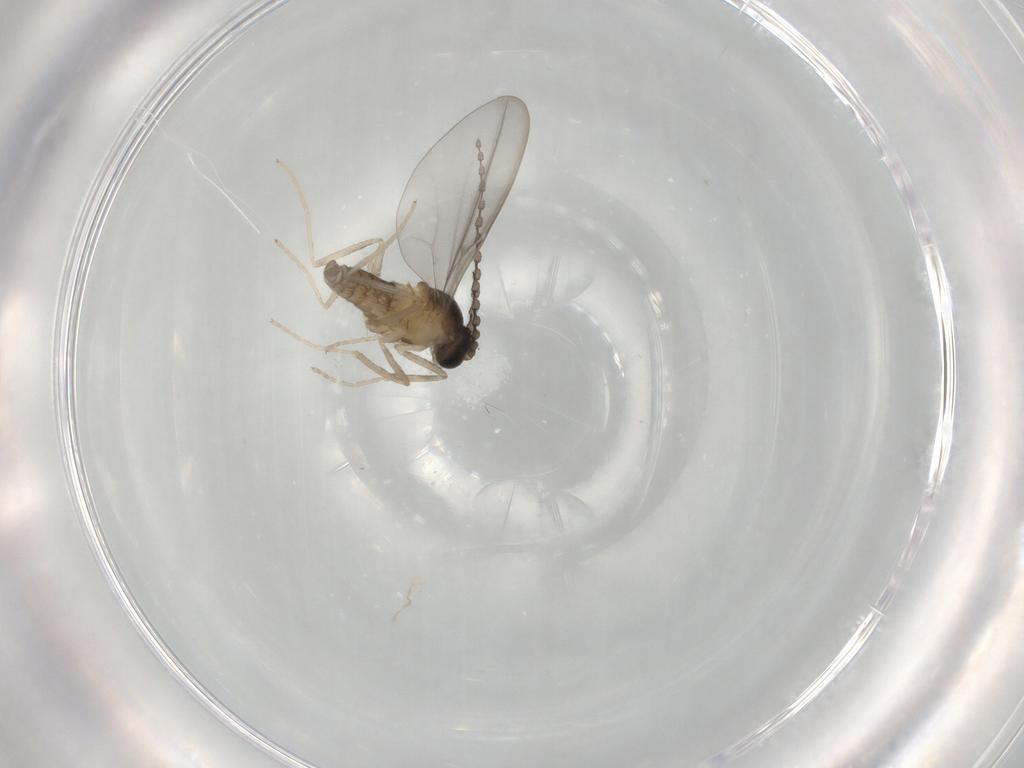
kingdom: Animalia
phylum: Arthropoda
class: Insecta
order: Diptera
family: Cecidomyiidae
